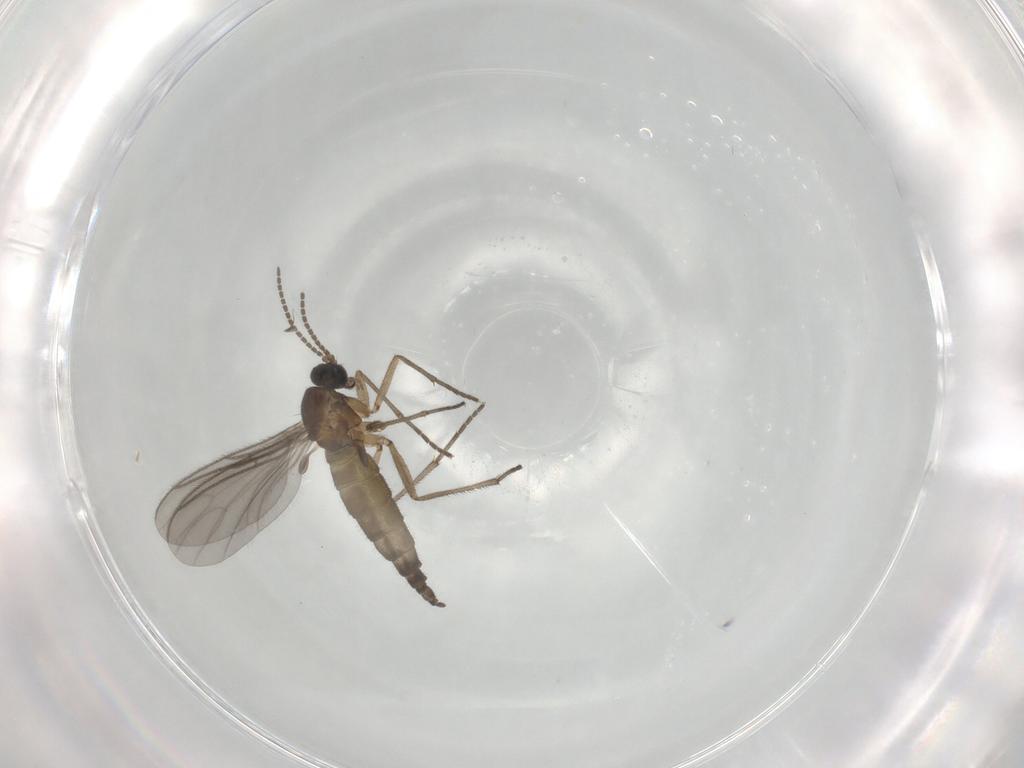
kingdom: Animalia
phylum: Arthropoda
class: Insecta
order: Diptera
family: Sciaridae
